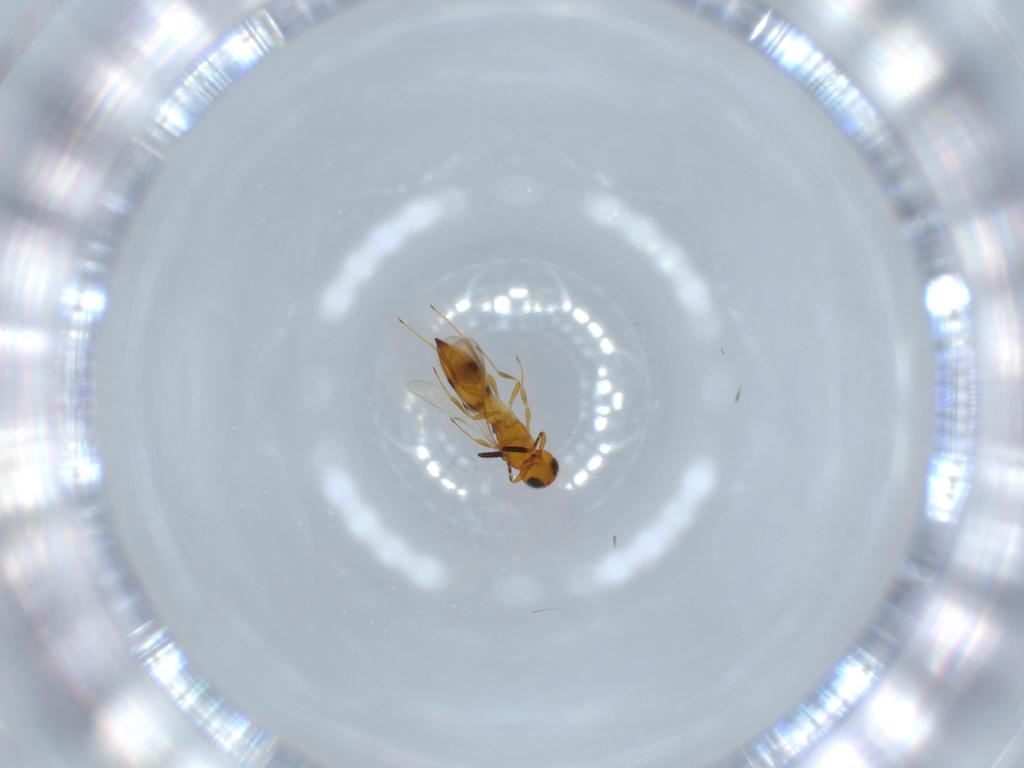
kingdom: Animalia
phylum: Arthropoda
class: Insecta
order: Hymenoptera
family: Scelionidae
